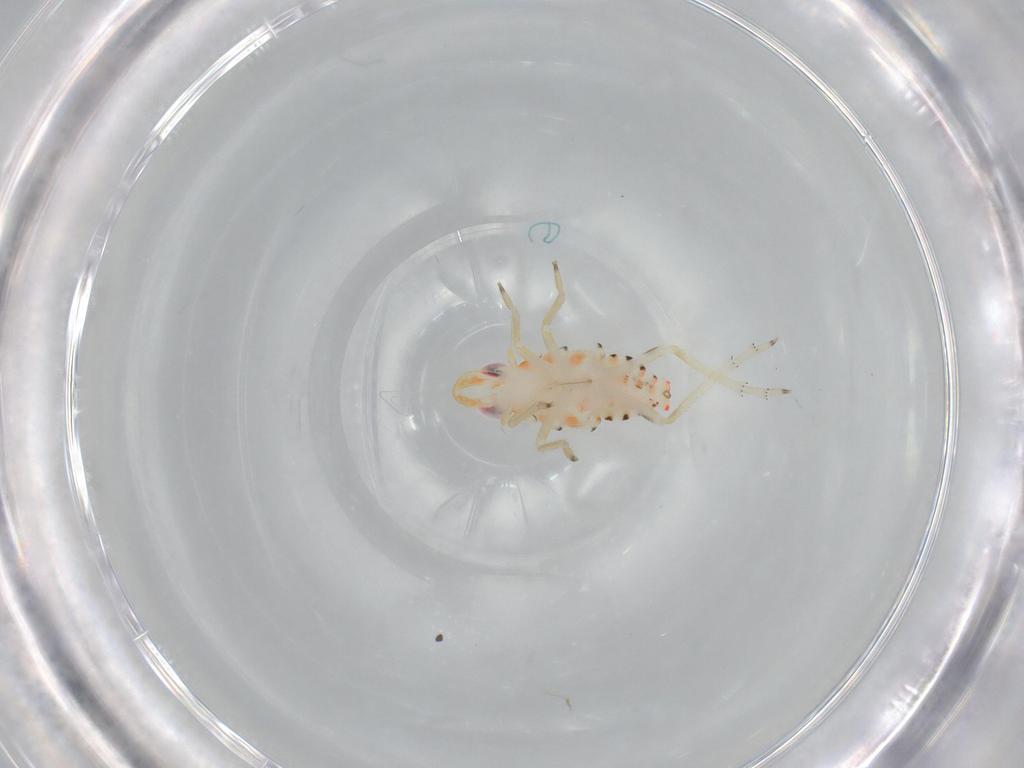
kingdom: Animalia
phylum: Arthropoda
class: Insecta
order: Hemiptera
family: Tropiduchidae
